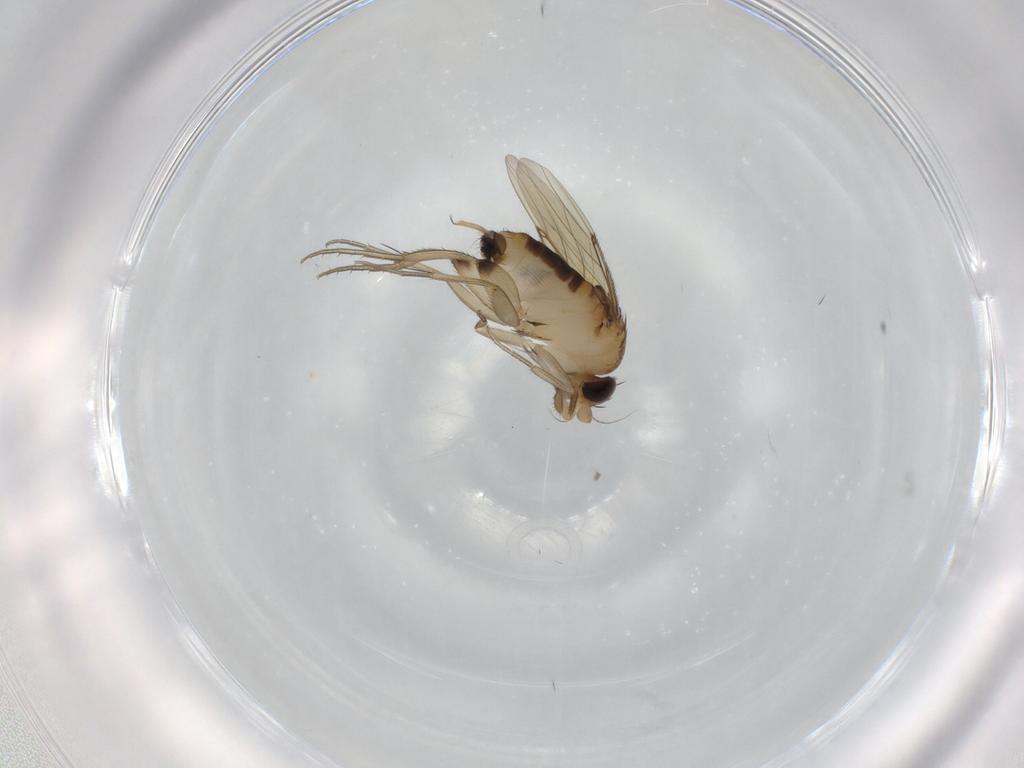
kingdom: Animalia
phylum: Arthropoda
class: Insecta
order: Diptera
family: Phoridae
